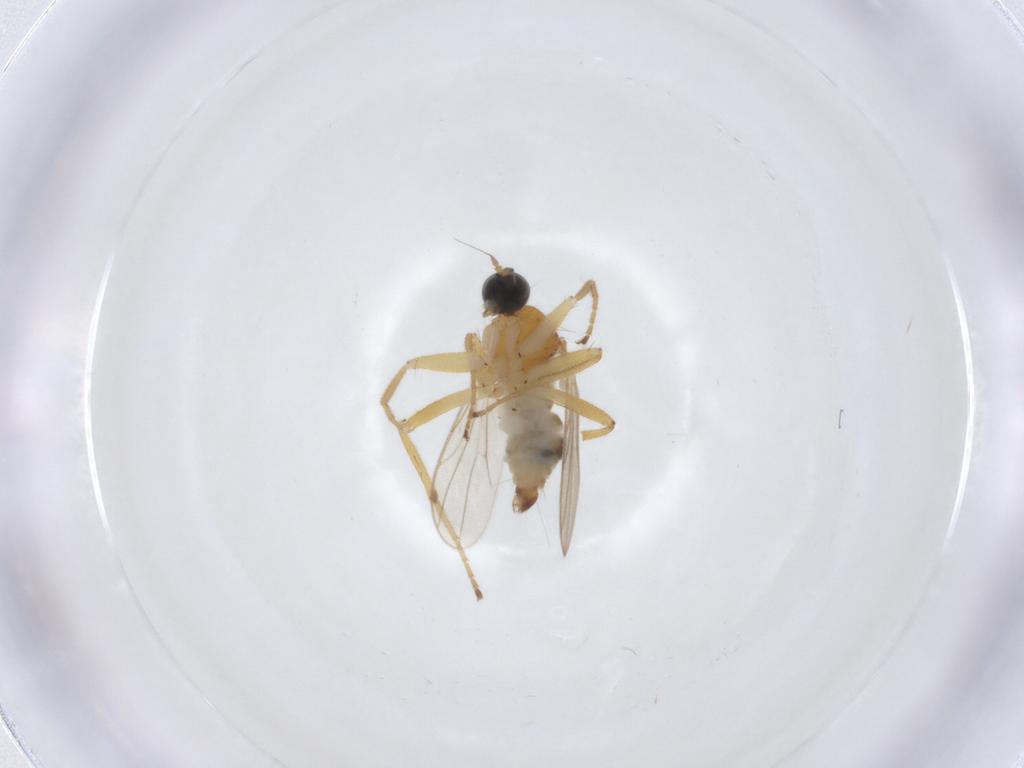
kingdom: Animalia
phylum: Arthropoda
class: Insecta
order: Diptera
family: Hybotidae
